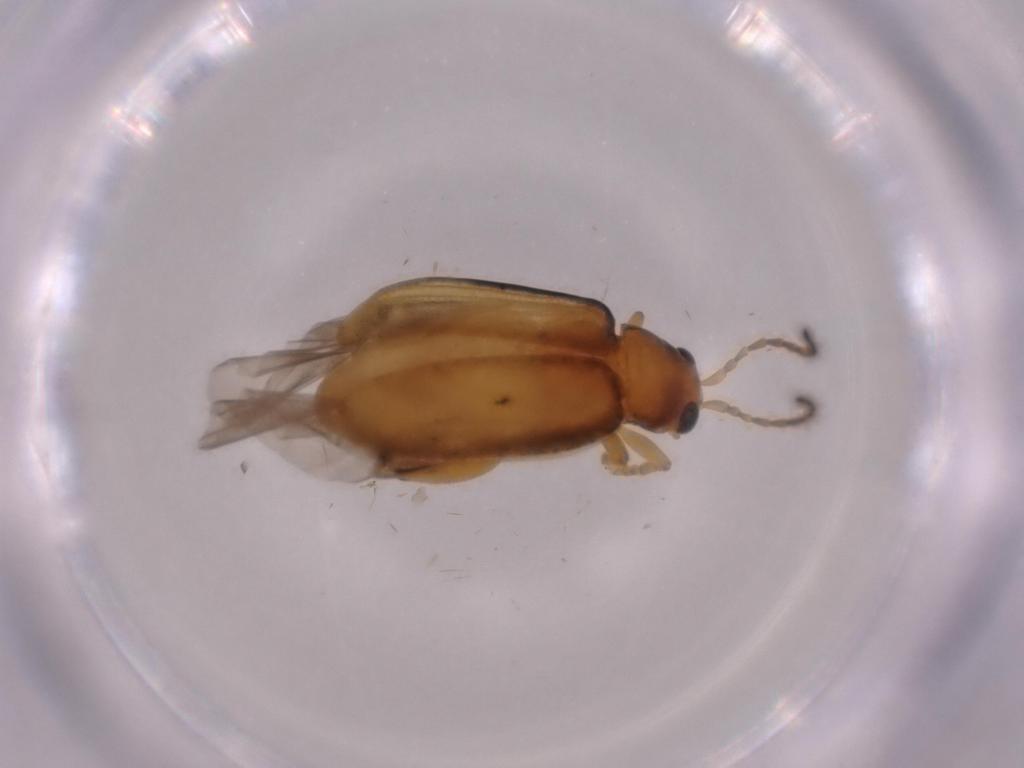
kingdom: Animalia
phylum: Arthropoda
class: Insecta
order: Coleoptera
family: Chrysomelidae
